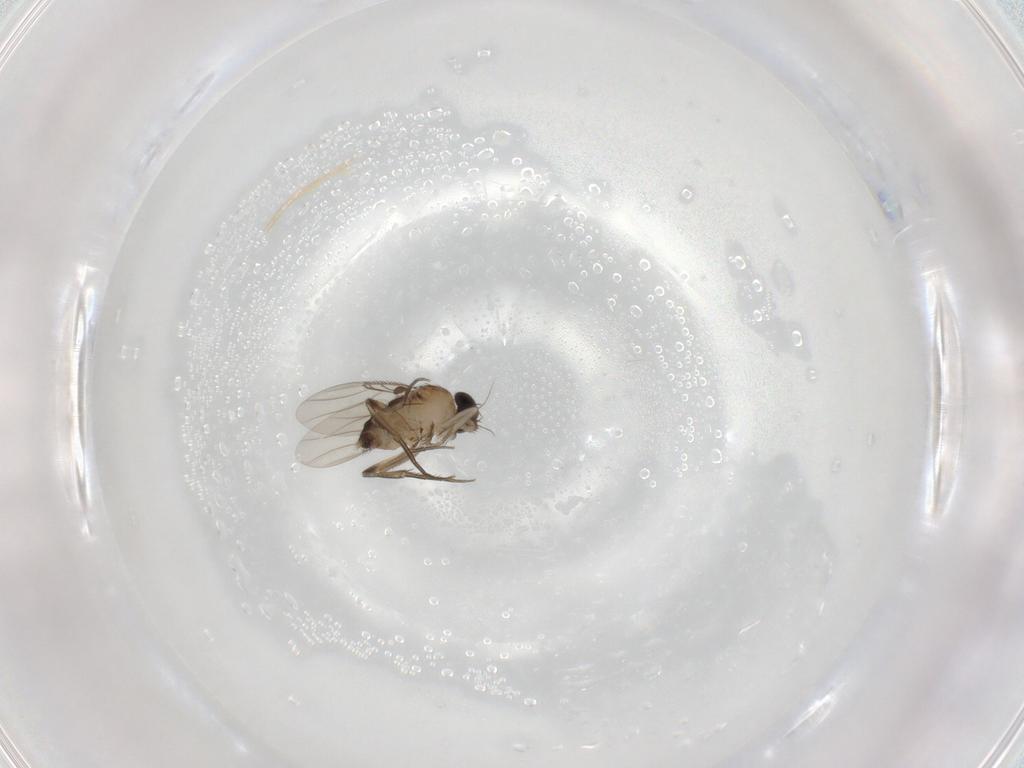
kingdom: Animalia
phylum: Arthropoda
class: Insecta
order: Diptera
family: Phoridae
